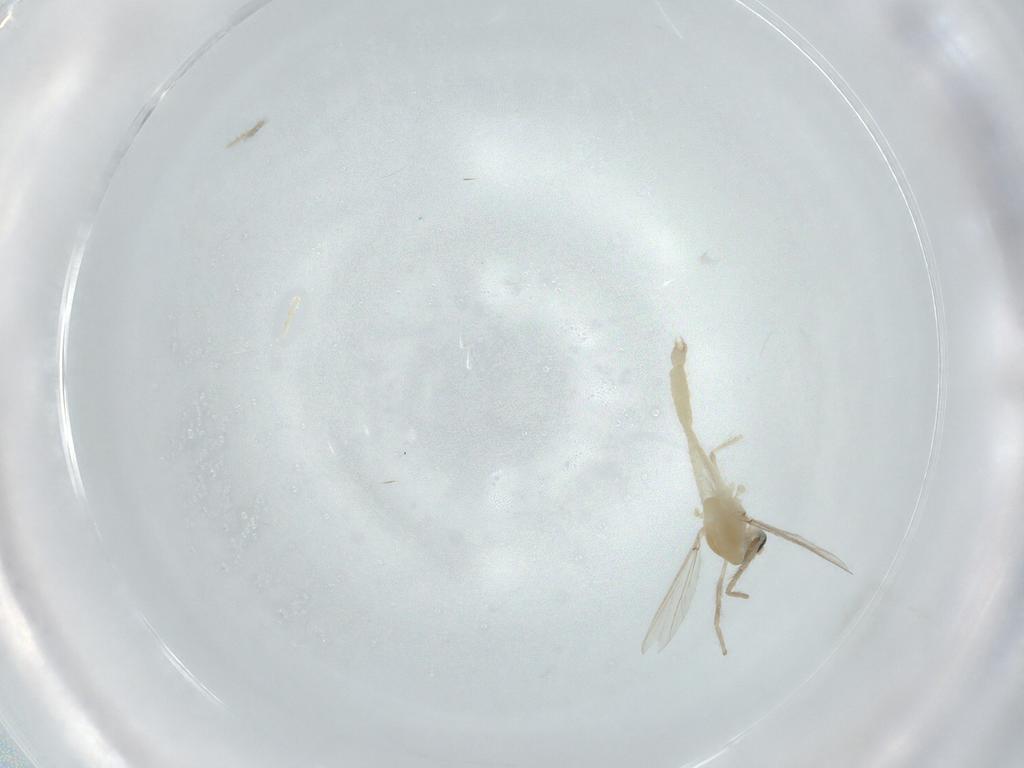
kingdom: Animalia
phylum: Arthropoda
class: Insecta
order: Diptera
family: Chironomidae
